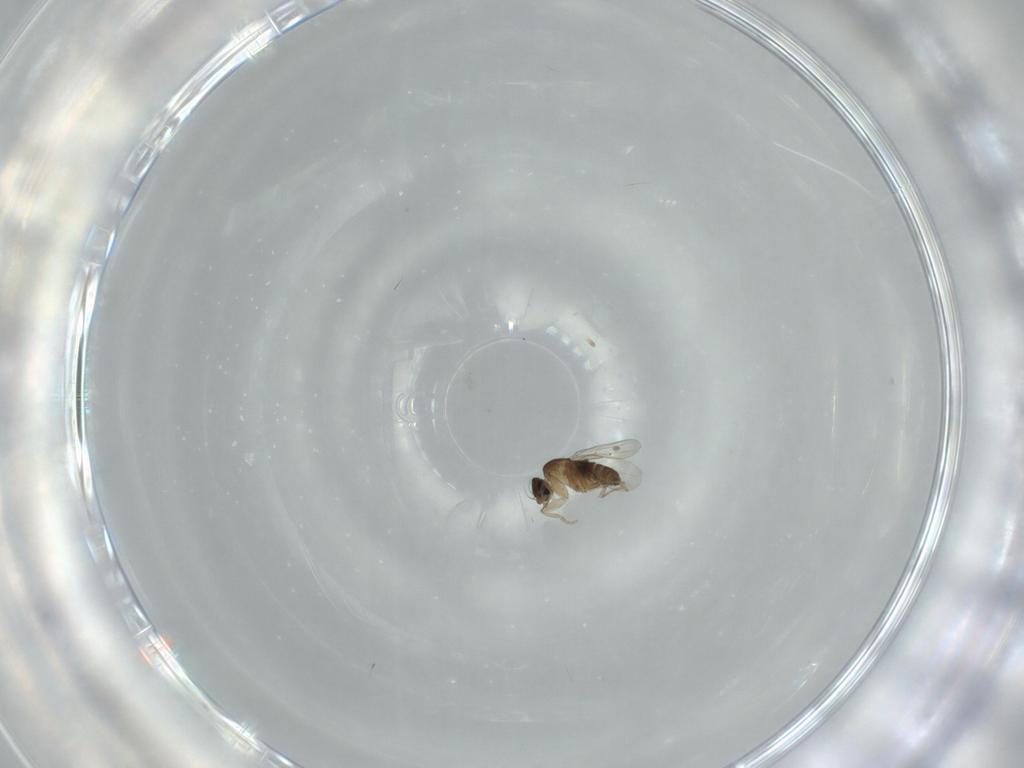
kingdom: Animalia
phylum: Arthropoda
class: Insecta
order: Diptera
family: Phoridae
